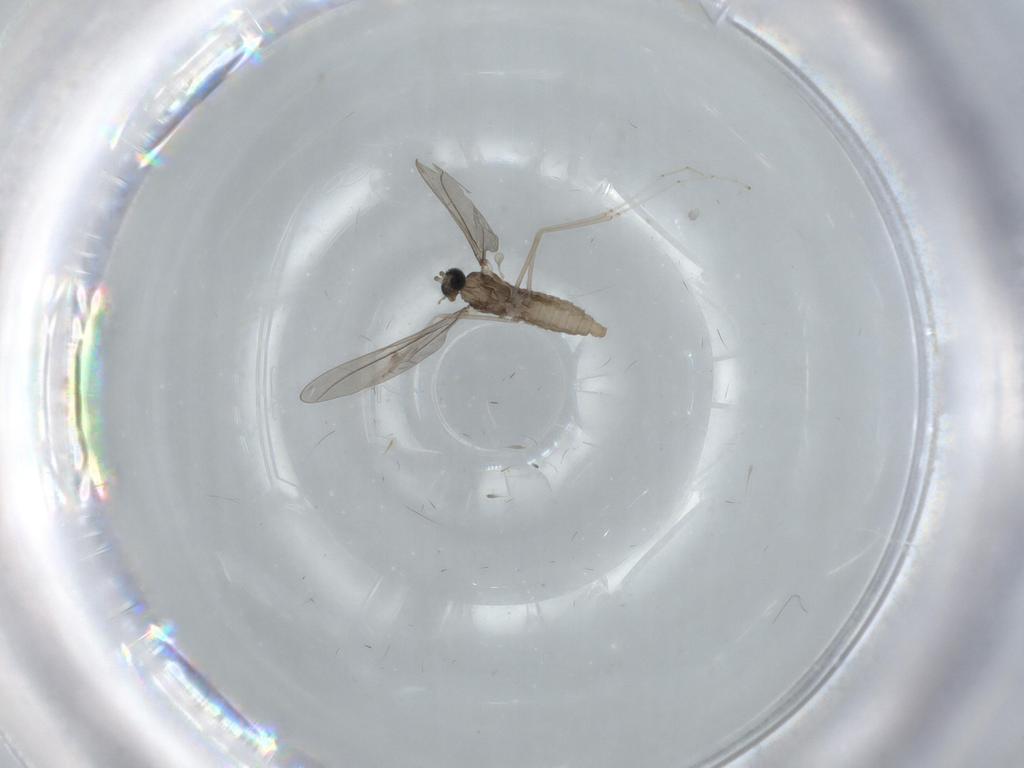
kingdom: Animalia
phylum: Arthropoda
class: Insecta
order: Diptera
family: Cecidomyiidae
